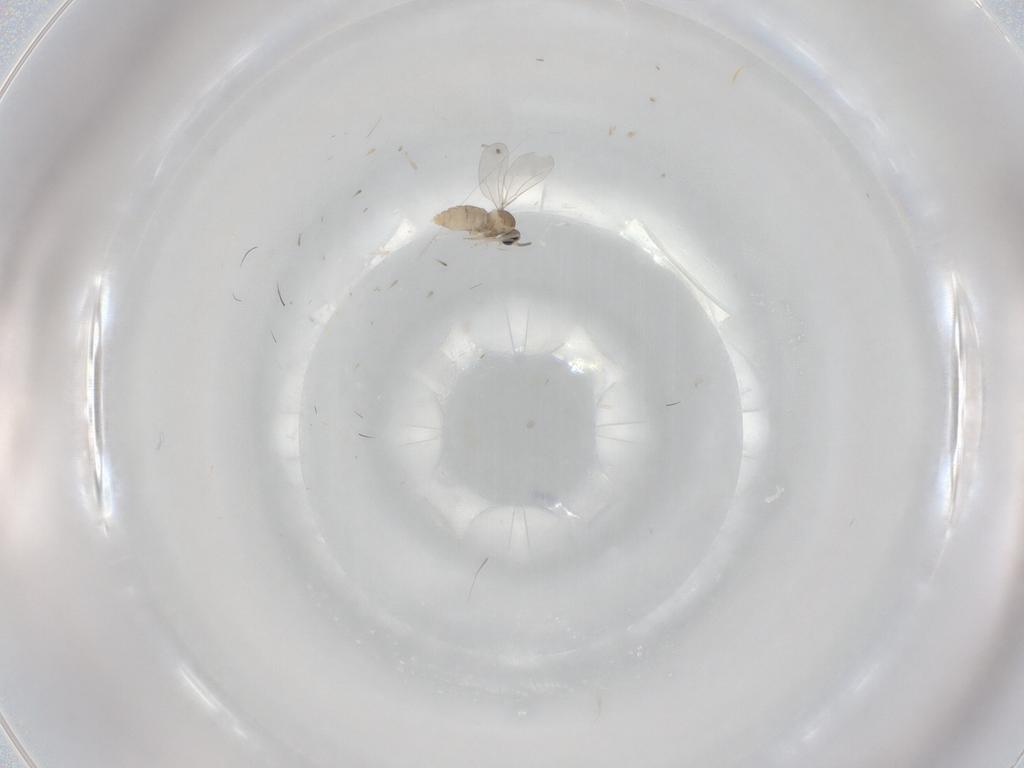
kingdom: Animalia
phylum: Arthropoda
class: Insecta
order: Diptera
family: Cecidomyiidae
